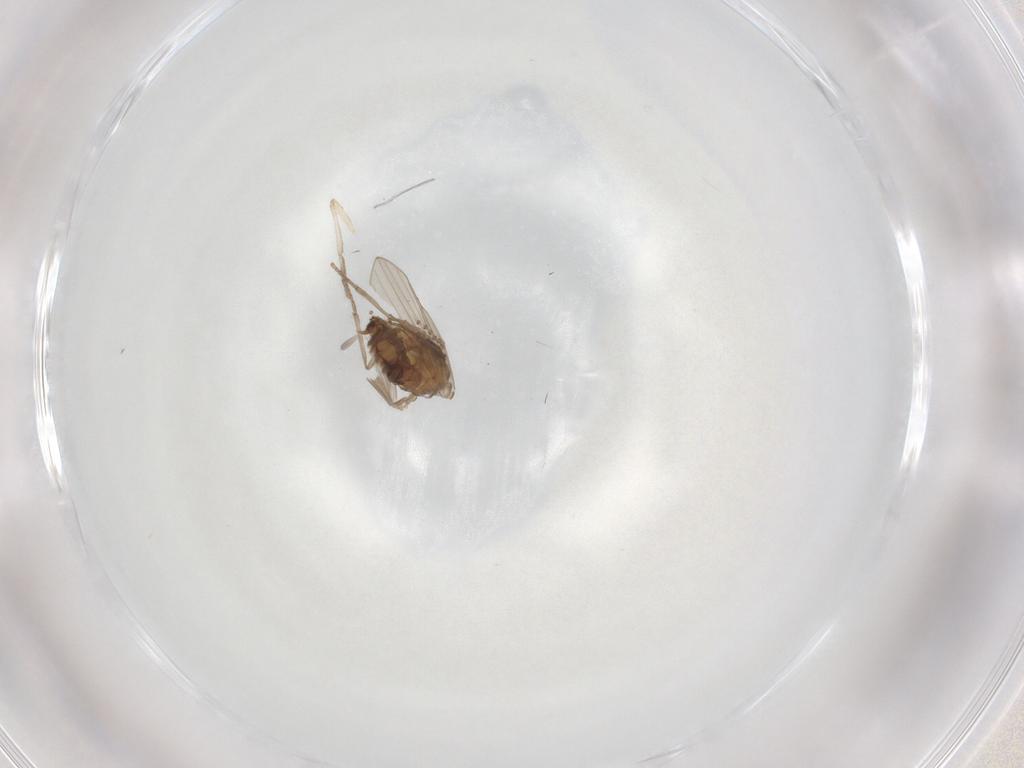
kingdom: Animalia
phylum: Arthropoda
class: Insecta
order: Diptera
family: Psychodidae
